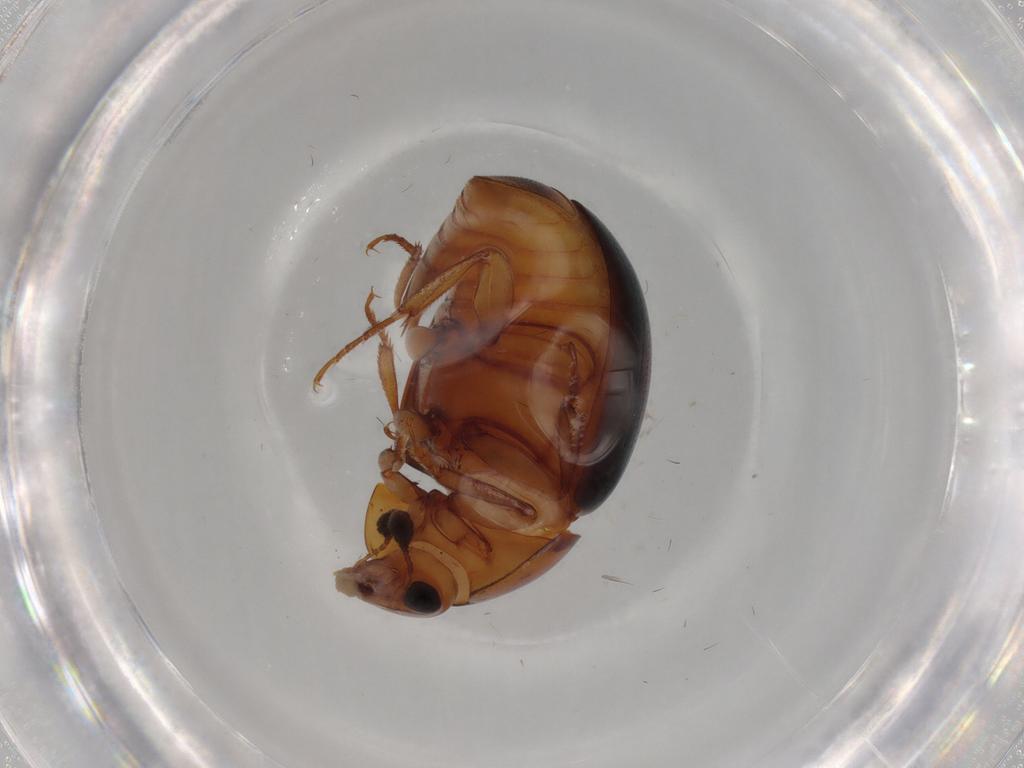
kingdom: Animalia
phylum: Arthropoda
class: Insecta
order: Coleoptera
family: Nitidulidae
